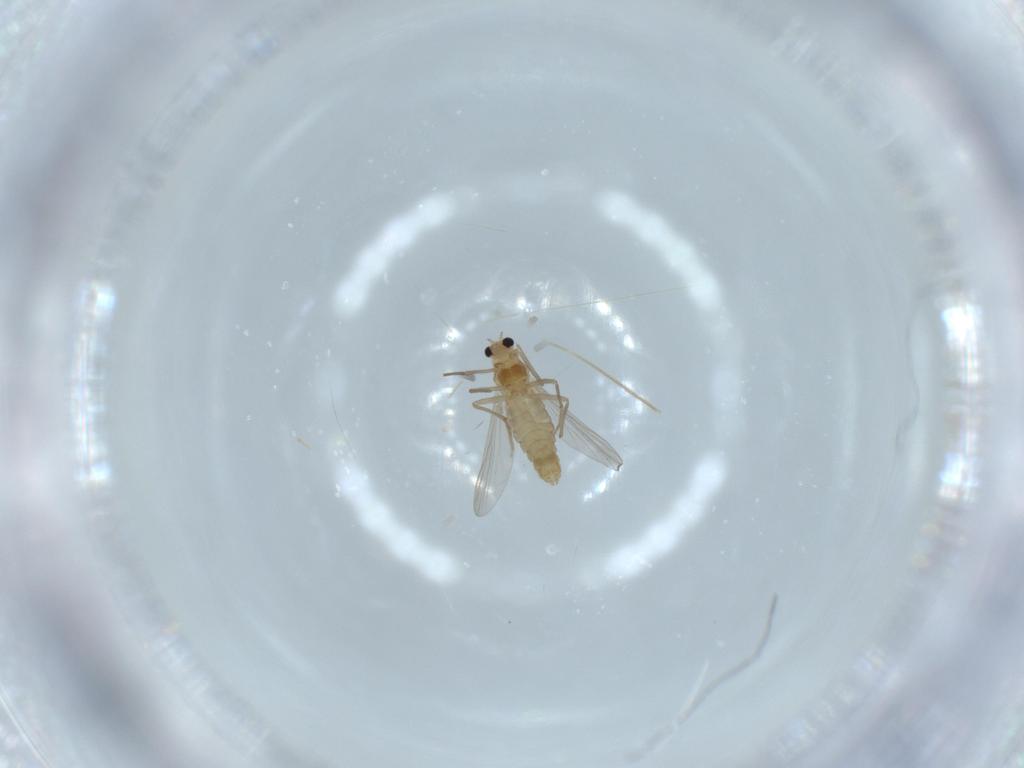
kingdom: Animalia
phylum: Arthropoda
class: Insecta
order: Diptera
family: Chironomidae
